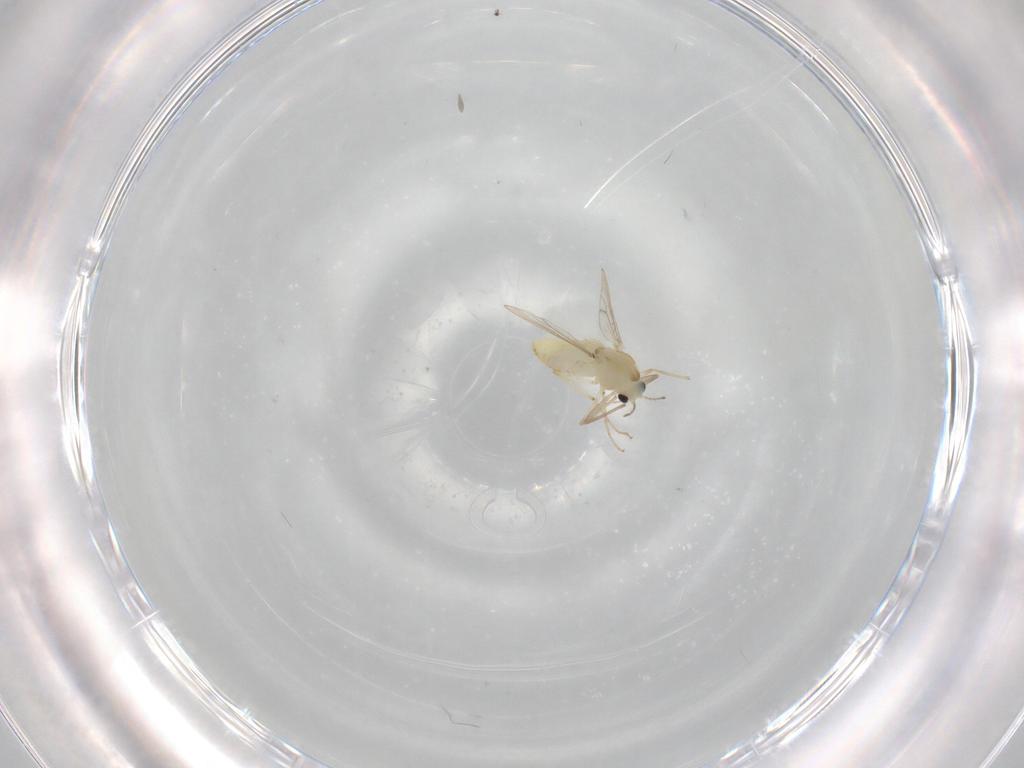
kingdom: Animalia
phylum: Arthropoda
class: Insecta
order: Diptera
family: Chironomidae
